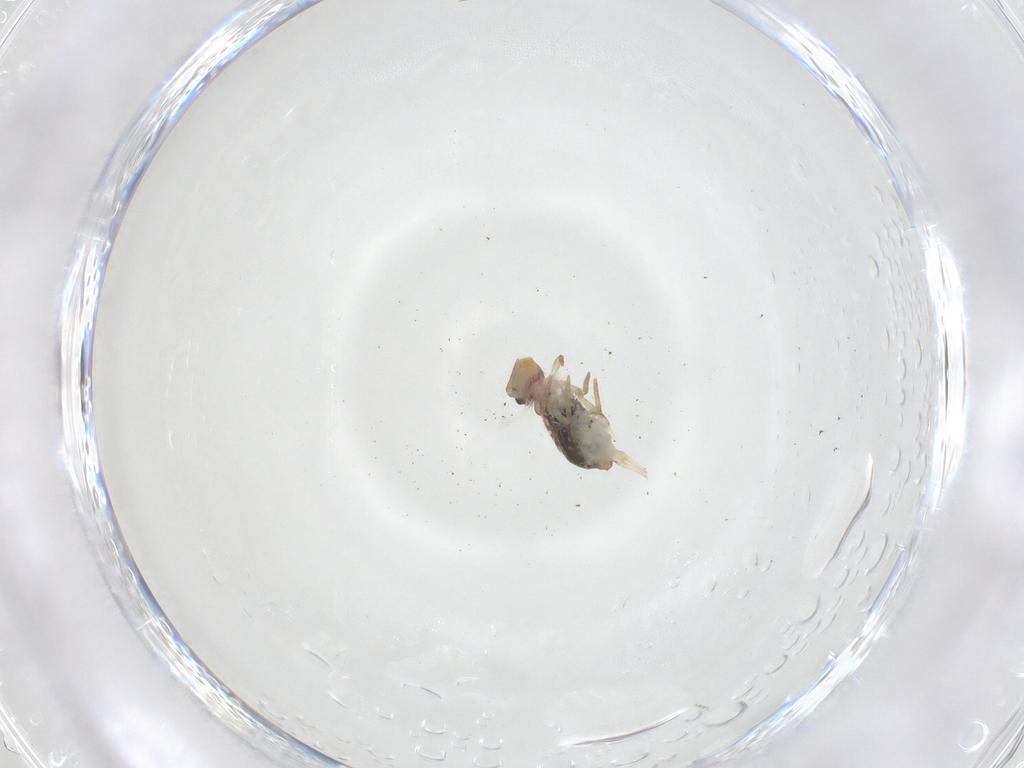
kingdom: Animalia
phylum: Arthropoda
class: Collembola
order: Symphypleona
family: Dicyrtomidae
